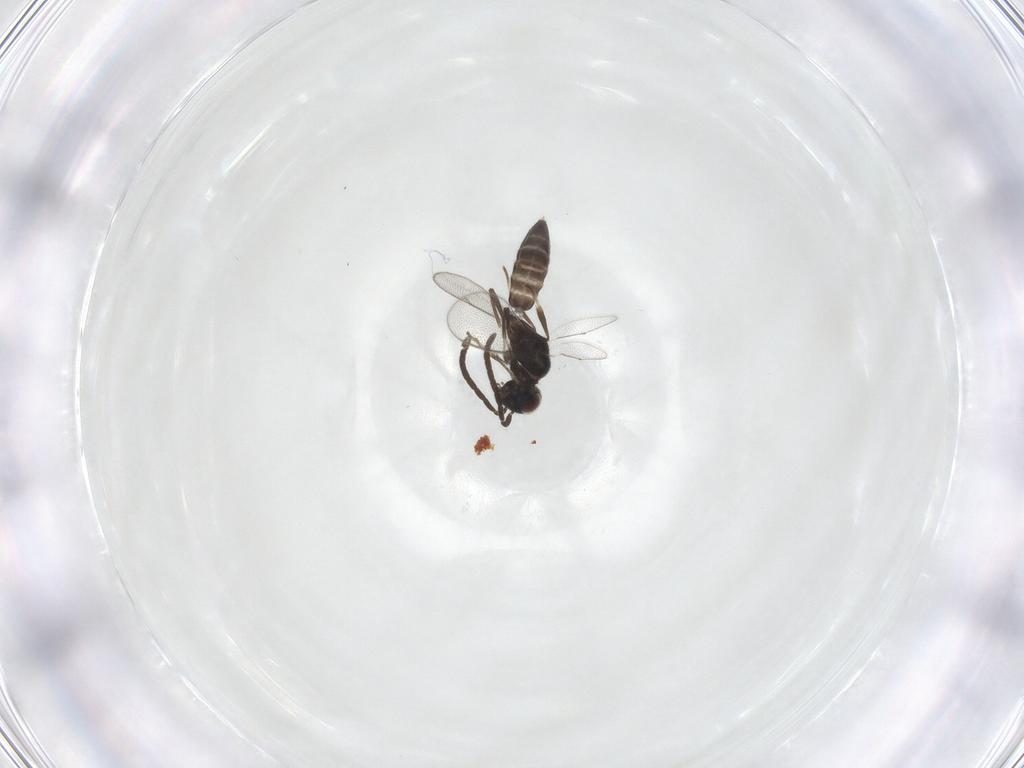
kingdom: Animalia
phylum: Arthropoda
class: Insecta
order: Hymenoptera
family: Eupelmidae
